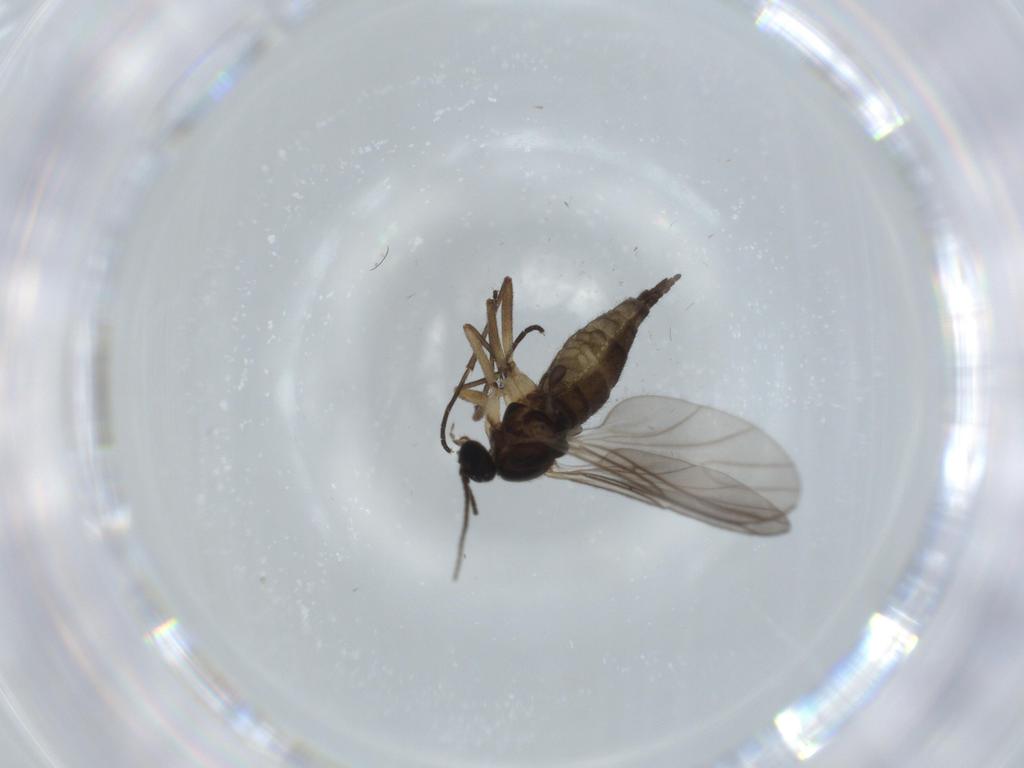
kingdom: Animalia
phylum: Arthropoda
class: Insecta
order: Diptera
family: Sciaridae
